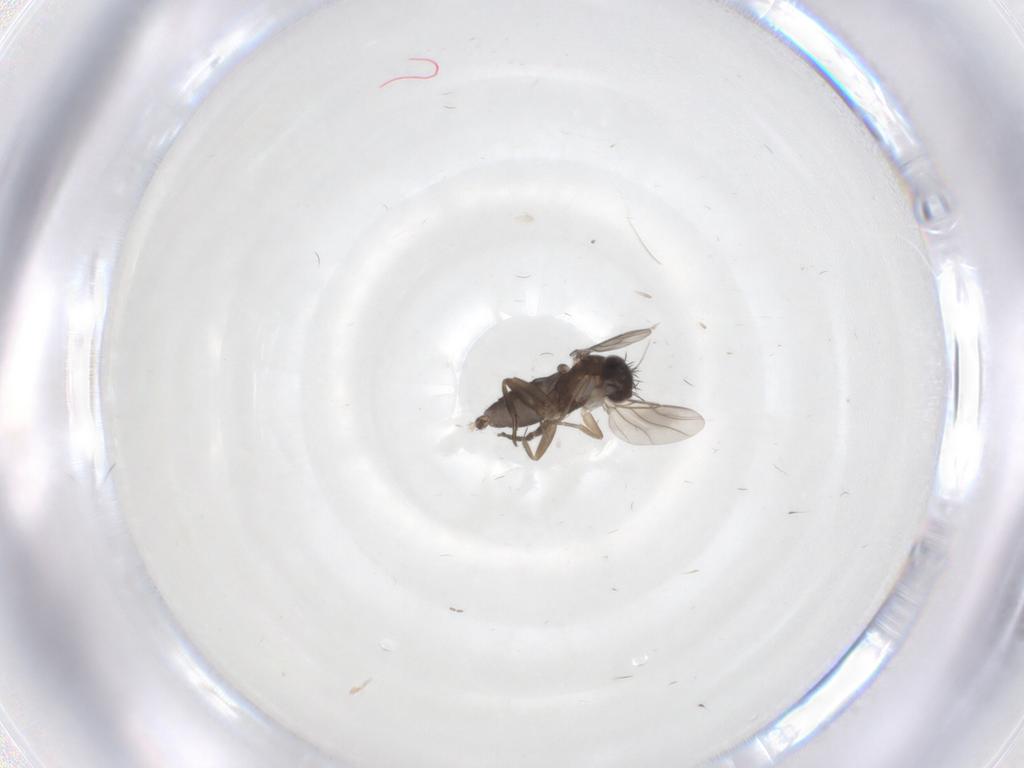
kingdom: Animalia
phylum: Arthropoda
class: Insecta
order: Diptera
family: Phoridae
